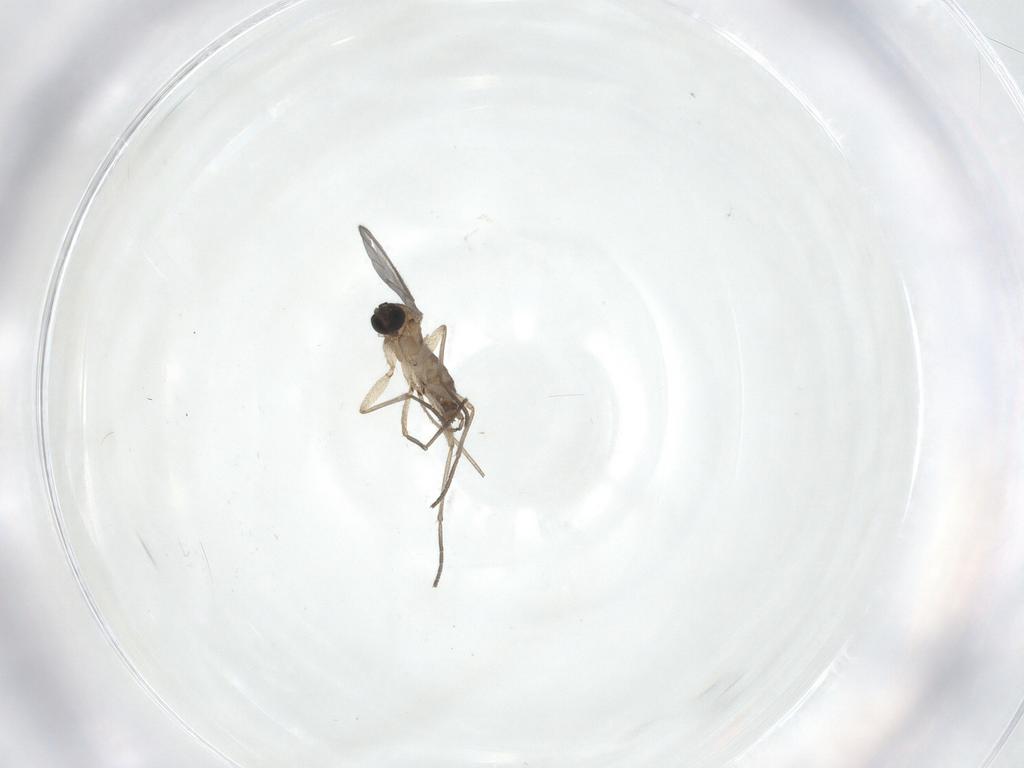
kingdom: Animalia
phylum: Arthropoda
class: Insecta
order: Diptera
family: Sciaridae
